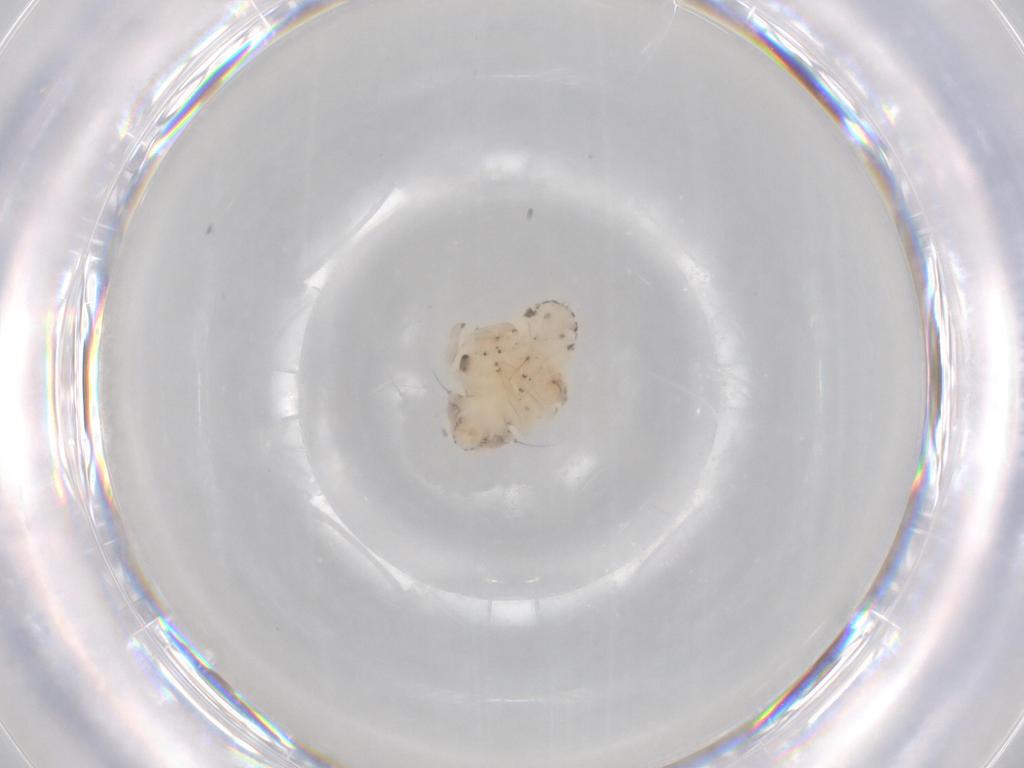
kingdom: Animalia
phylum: Arthropoda
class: Insecta
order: Hemiptera
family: Nogodinidae
